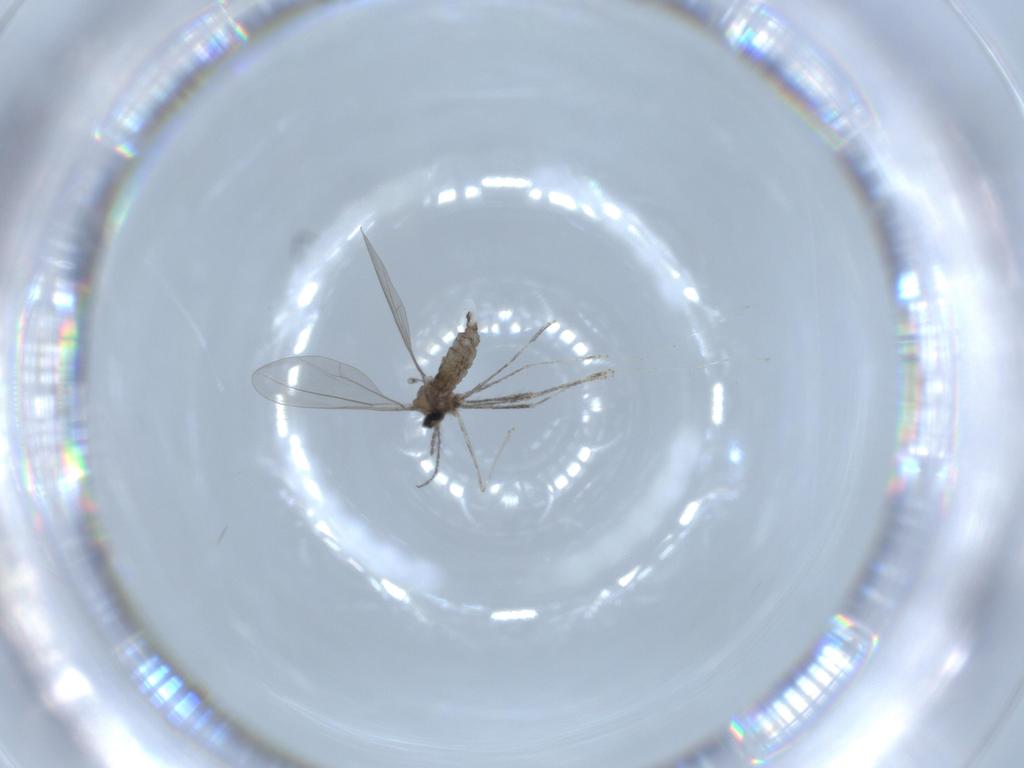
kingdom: Animalia
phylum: Arthropoda
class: Insecta
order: Diptera
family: Cecidomyiidae
